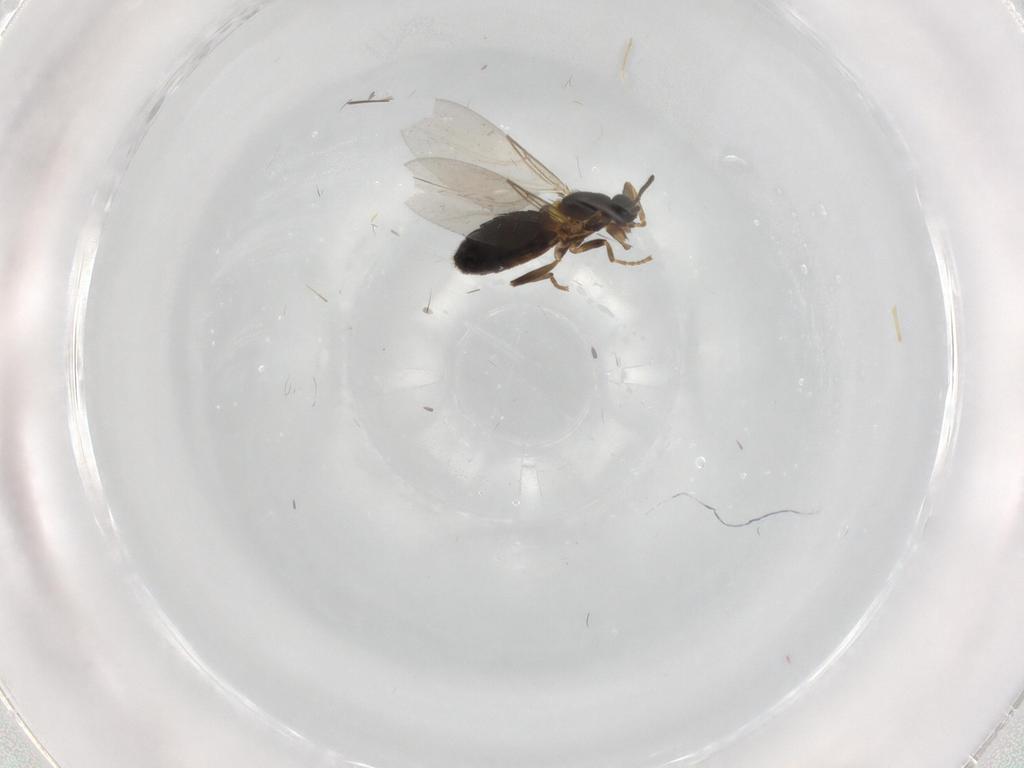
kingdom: Animalia
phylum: Arthropoda
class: Insecta
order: Diptera
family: Scatopsidae
